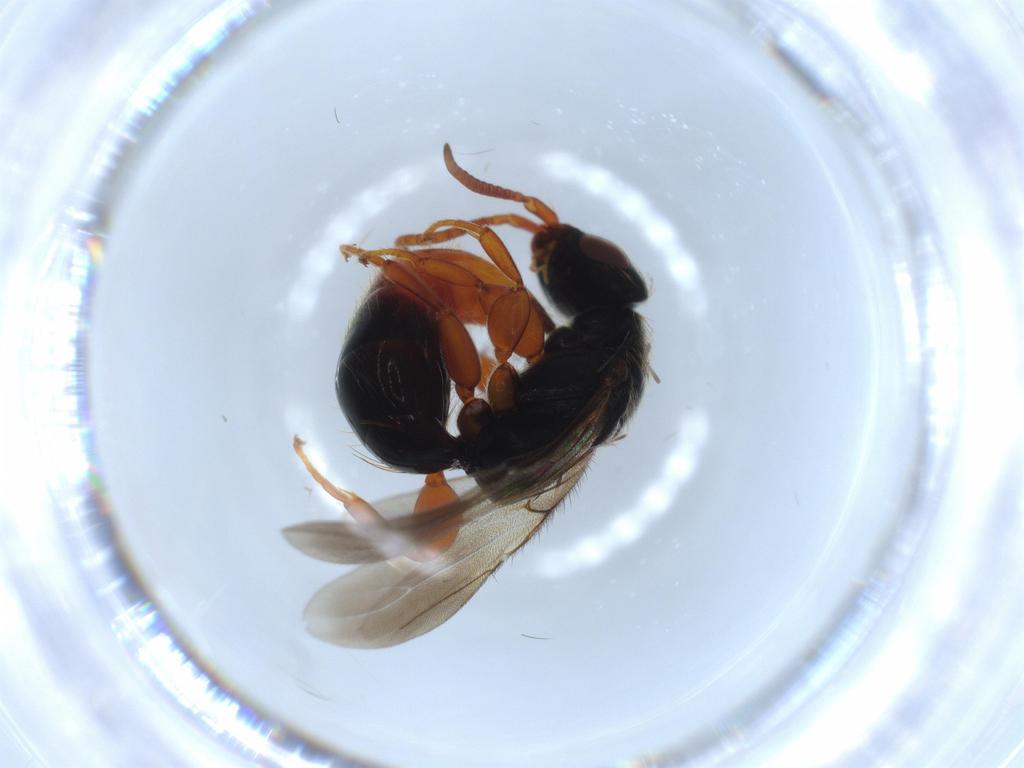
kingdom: Animalia
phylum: Arthropoda
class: Insecta
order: Hymenoptera
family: Bethylidae
